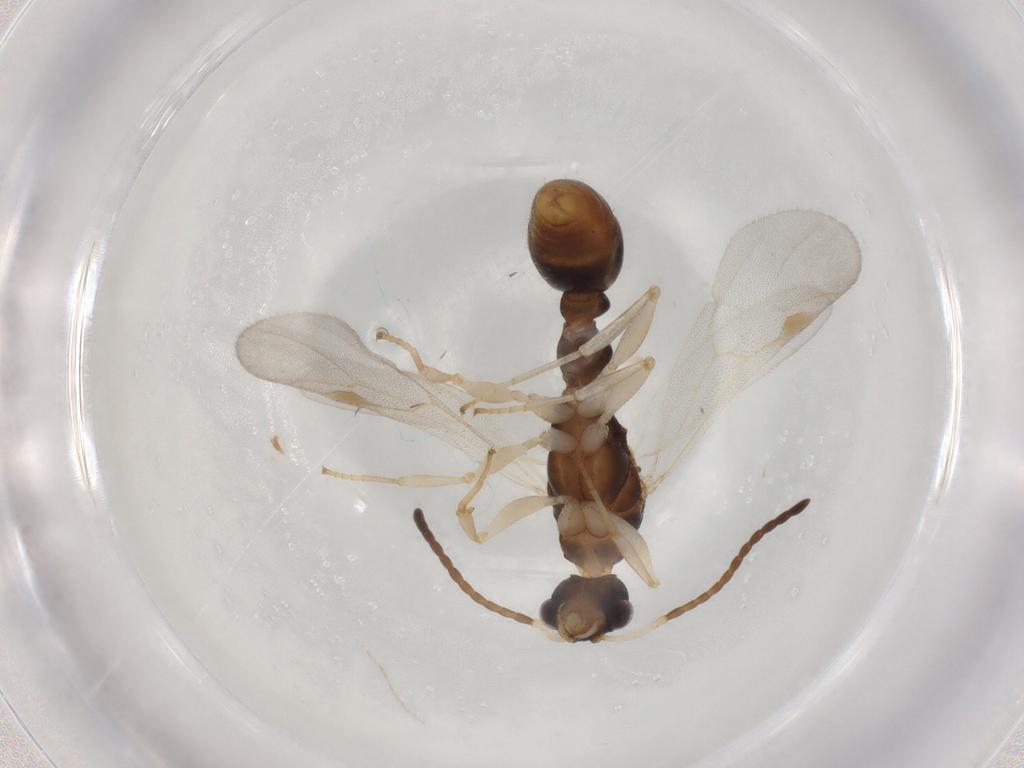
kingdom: Animalia
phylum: Arthropoda
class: Insecta
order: Hymenoptera
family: Formicidae
